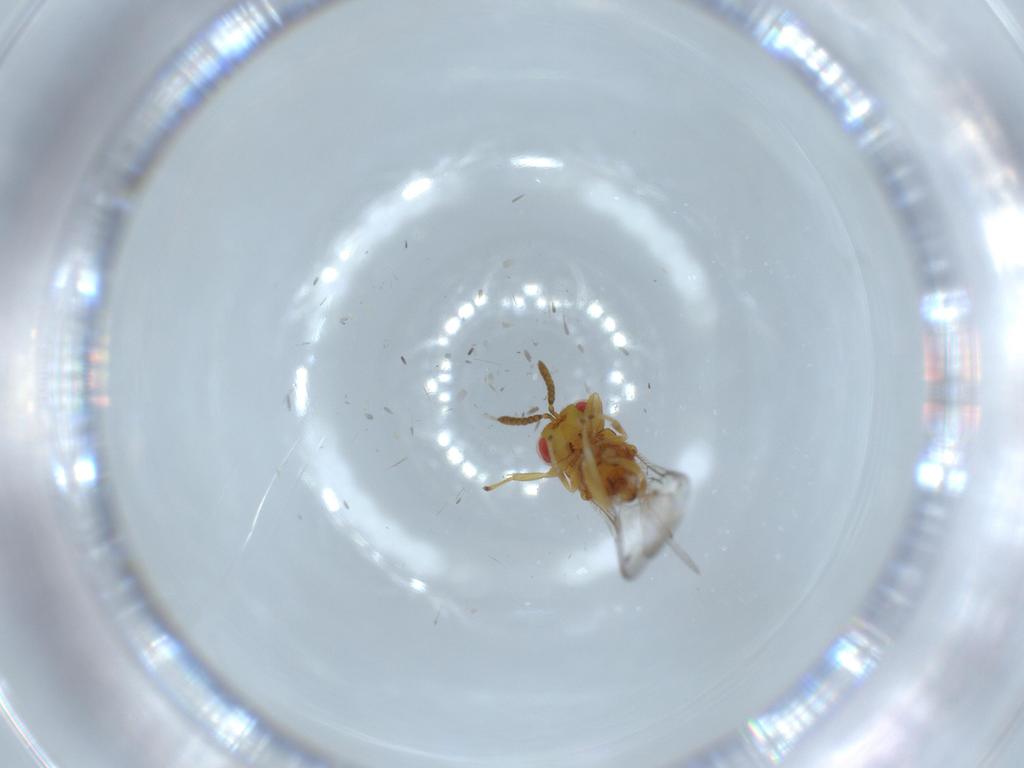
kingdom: Animalia
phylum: Arthropoda
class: Insecta
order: Hymenoptera
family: Eurytomidae
